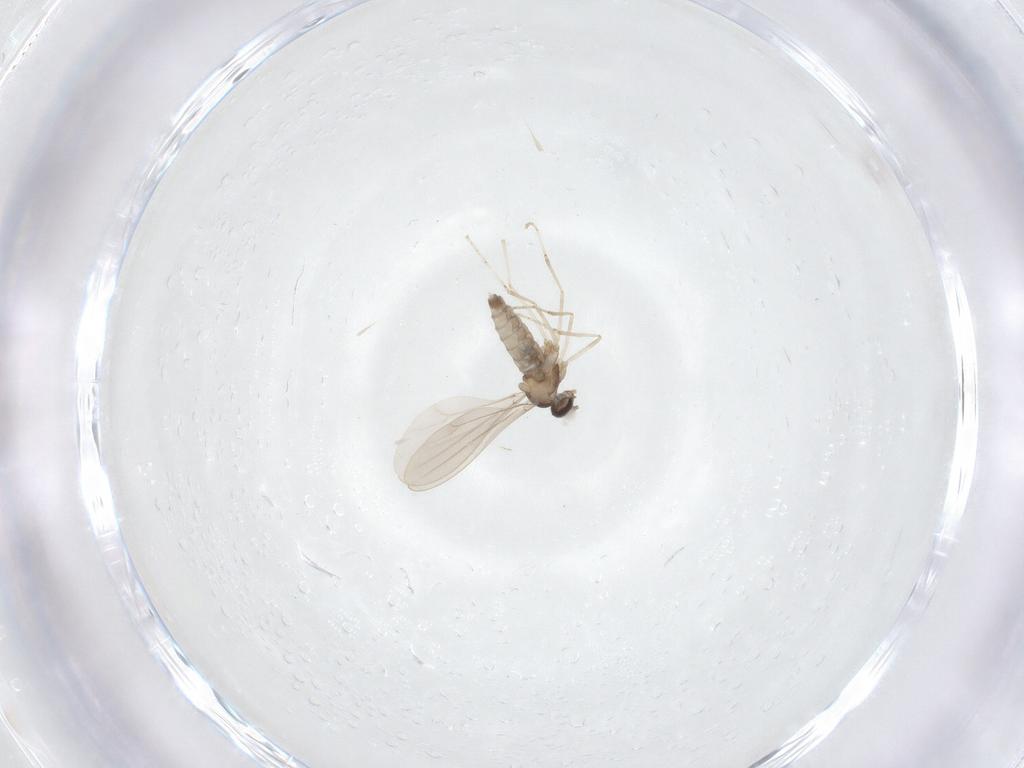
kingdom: Animalia
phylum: Arthropoda
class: Insecta
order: Diptera
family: Cecidomyiidae
